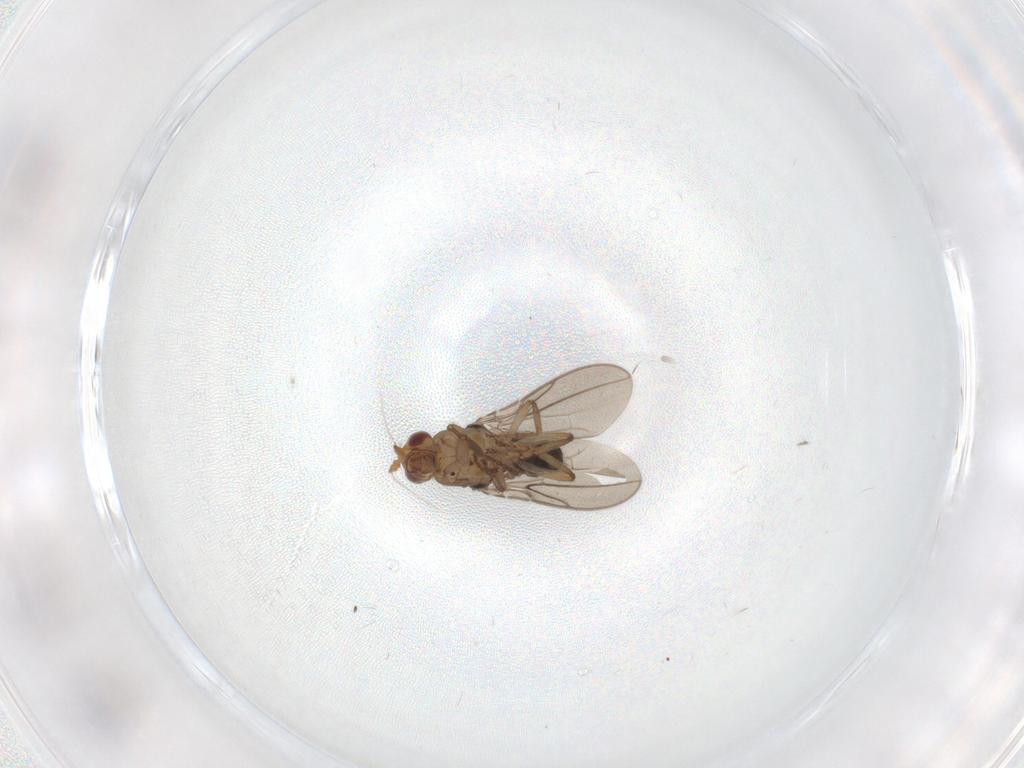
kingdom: Animalia
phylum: Arthropoda
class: Insecta
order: Diptera
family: Sphaeroceridae
